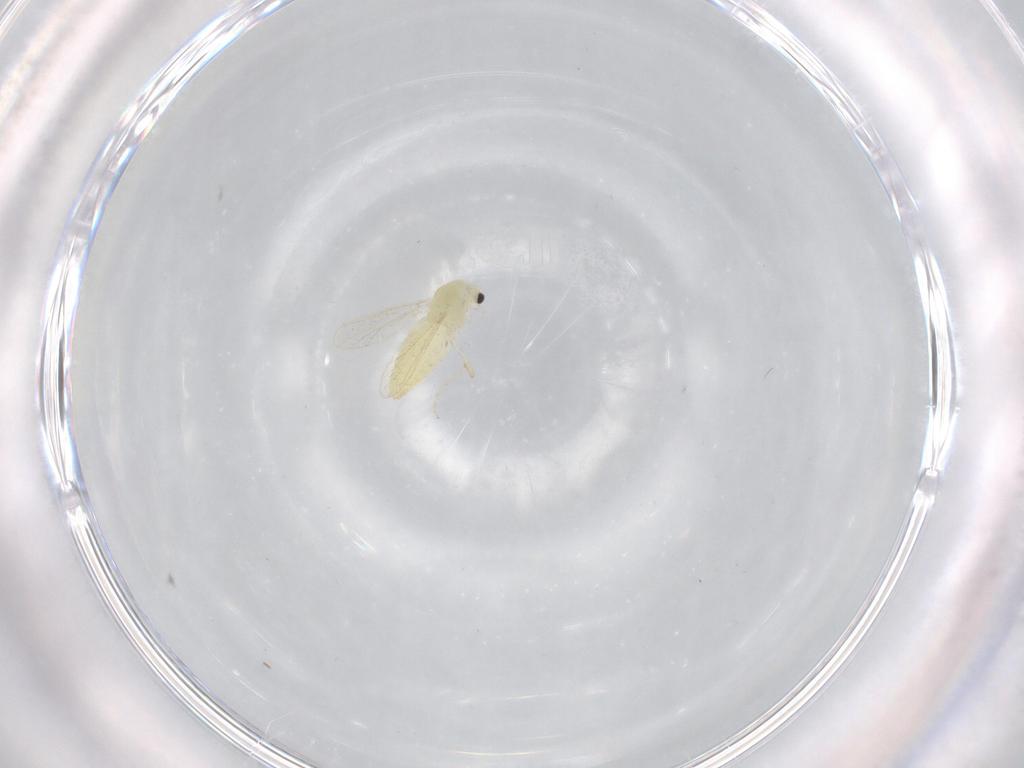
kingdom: Animalia
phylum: Arthropoda
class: Insecta
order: Diptera
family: Chironomidae
